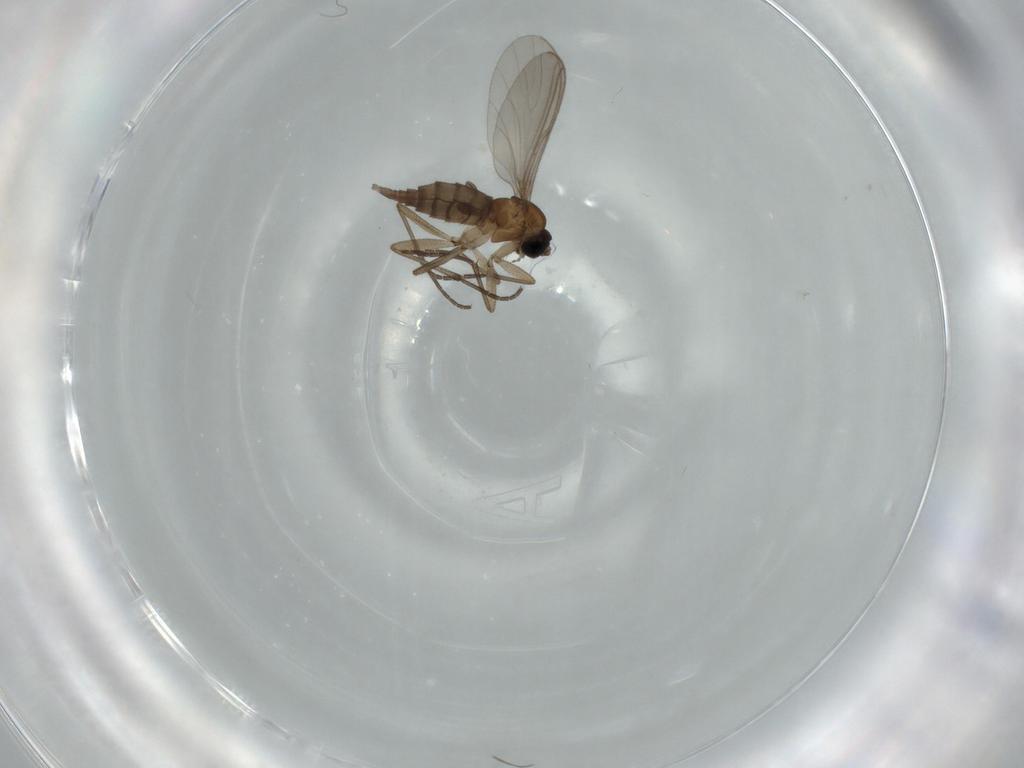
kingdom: Animalia
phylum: Arthropoda
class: Insecta
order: Diptera
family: Sciaridae
